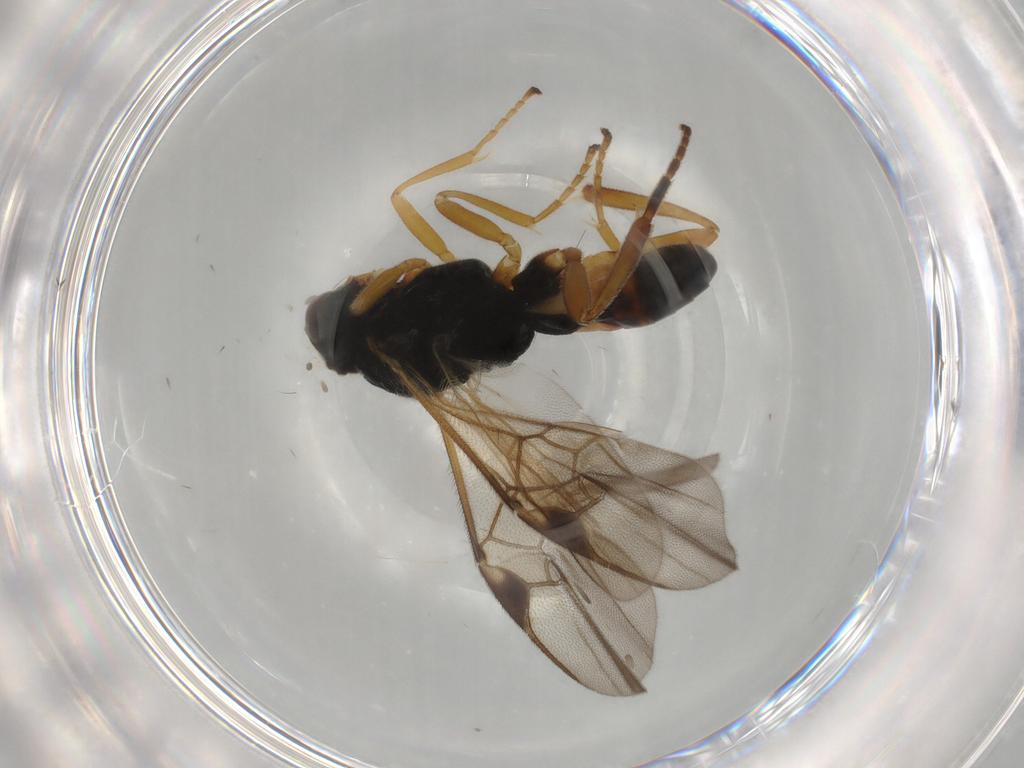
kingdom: Animalia
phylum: Arthropoda
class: Insecta
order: Hymenoptera
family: Braconidae
